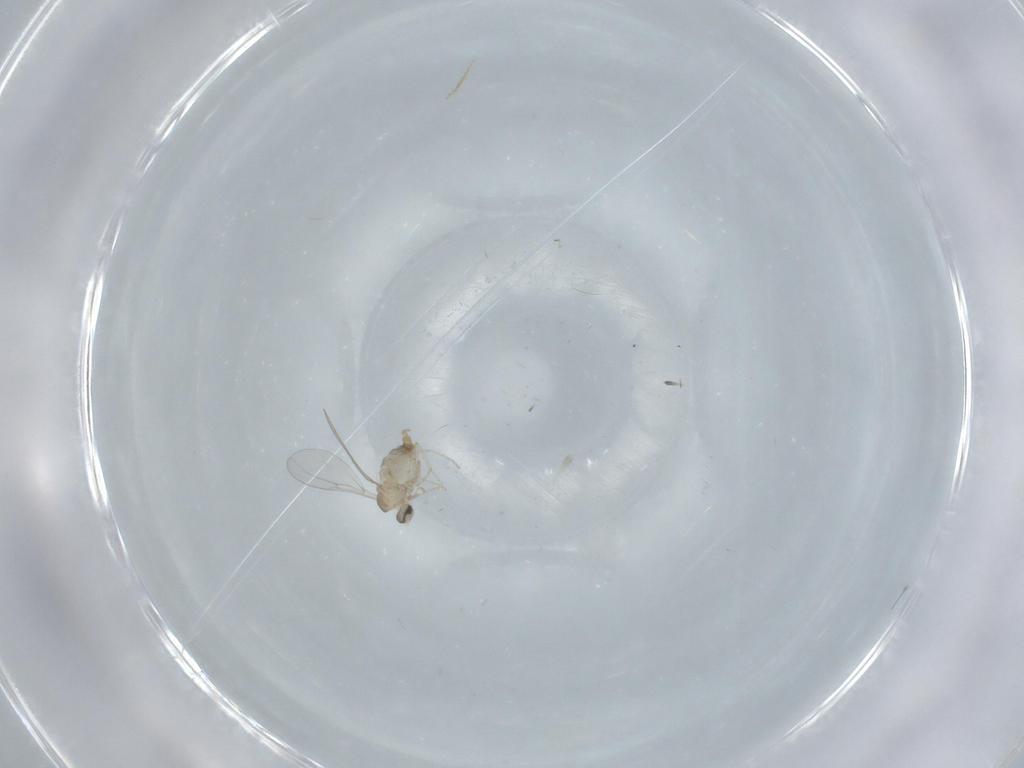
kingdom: Animalia
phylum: Arthropoda
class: Insecta
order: Diptera
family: Cecidomyiidae
